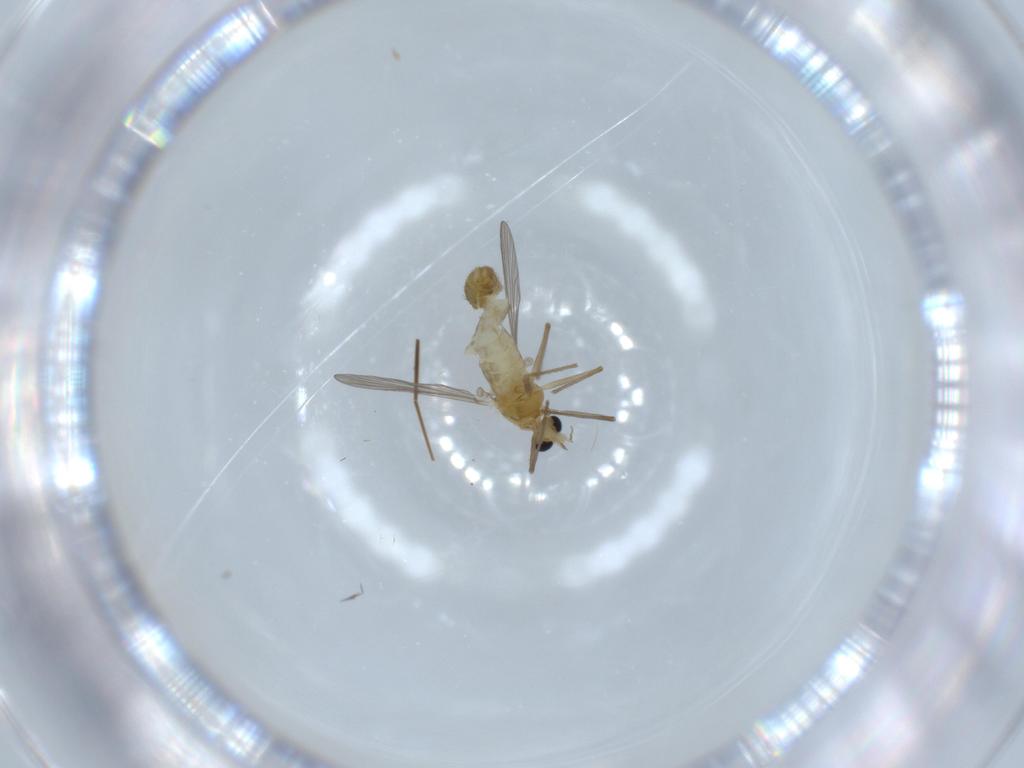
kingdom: Animalia
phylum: Arthropoda
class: Insecta
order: Diptera
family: Chironomidae
